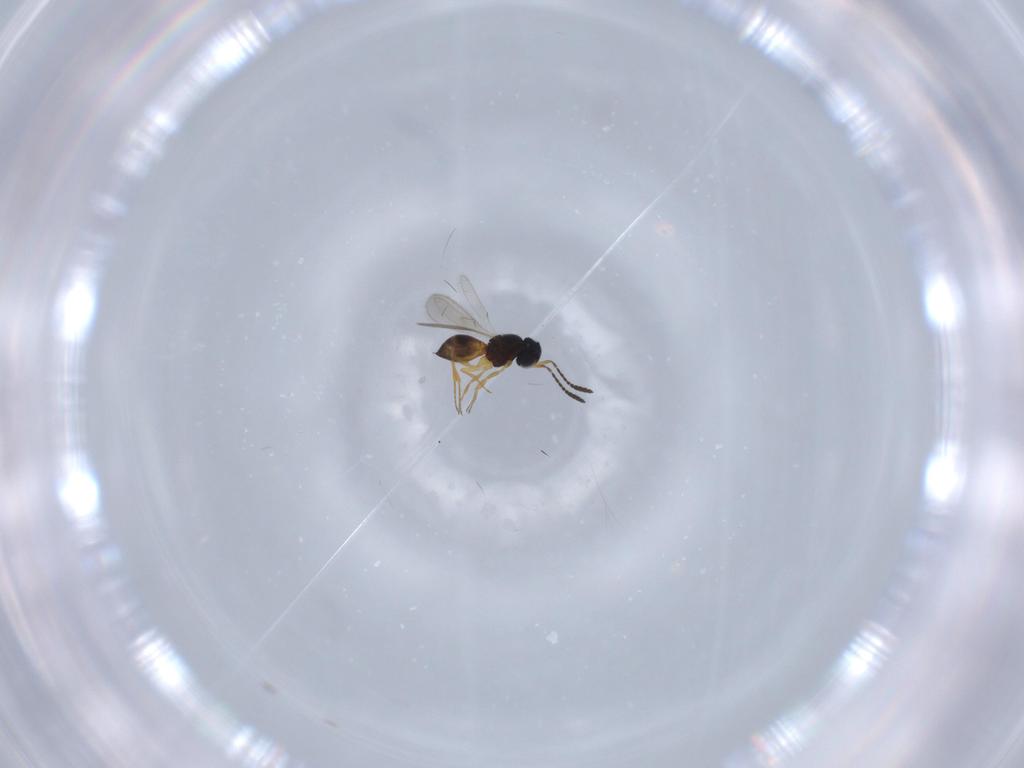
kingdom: Animalia
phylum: Arthropoda
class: Insecta
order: Hymenoptera
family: Scelionidae
